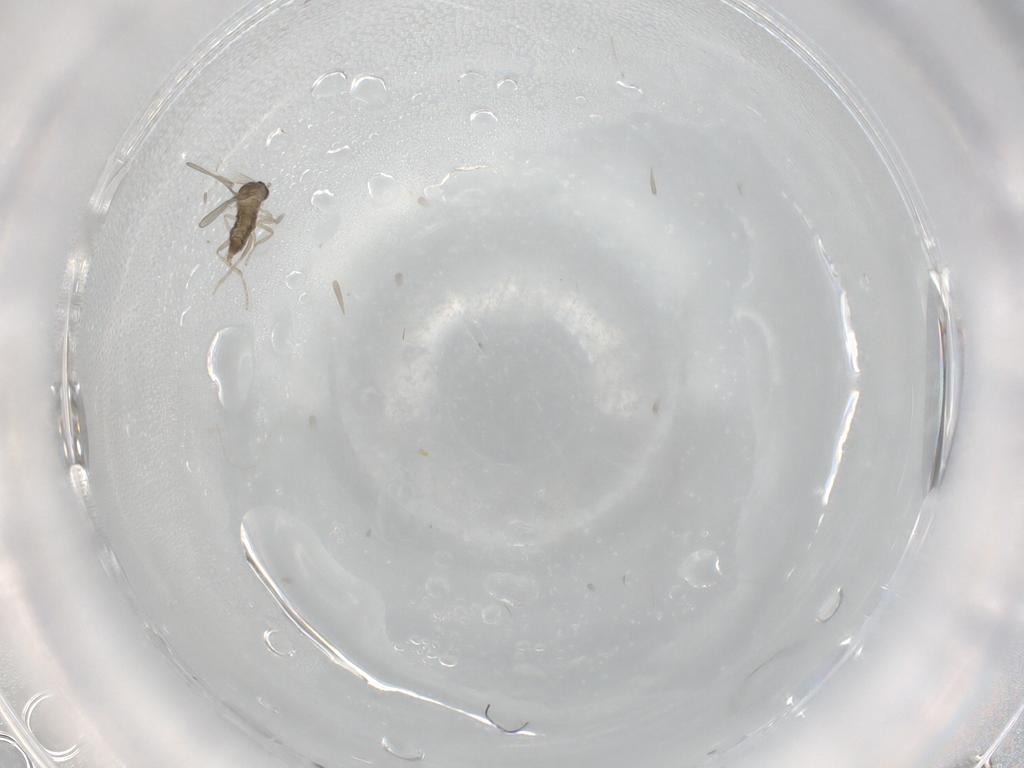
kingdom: Animalia
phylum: Arthropoda
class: Insecta
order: Diptera
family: Cecidomyiidae
